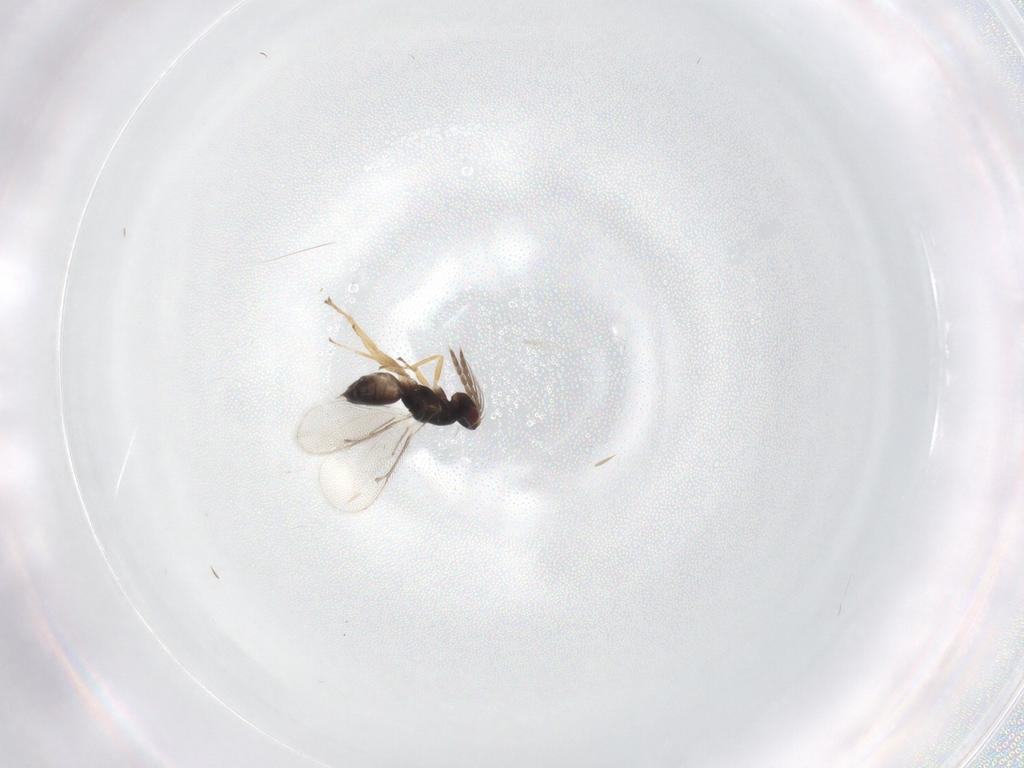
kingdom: Animalia
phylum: Arthropoda
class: Insecta
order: Hymenoptera
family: Eulophidae
